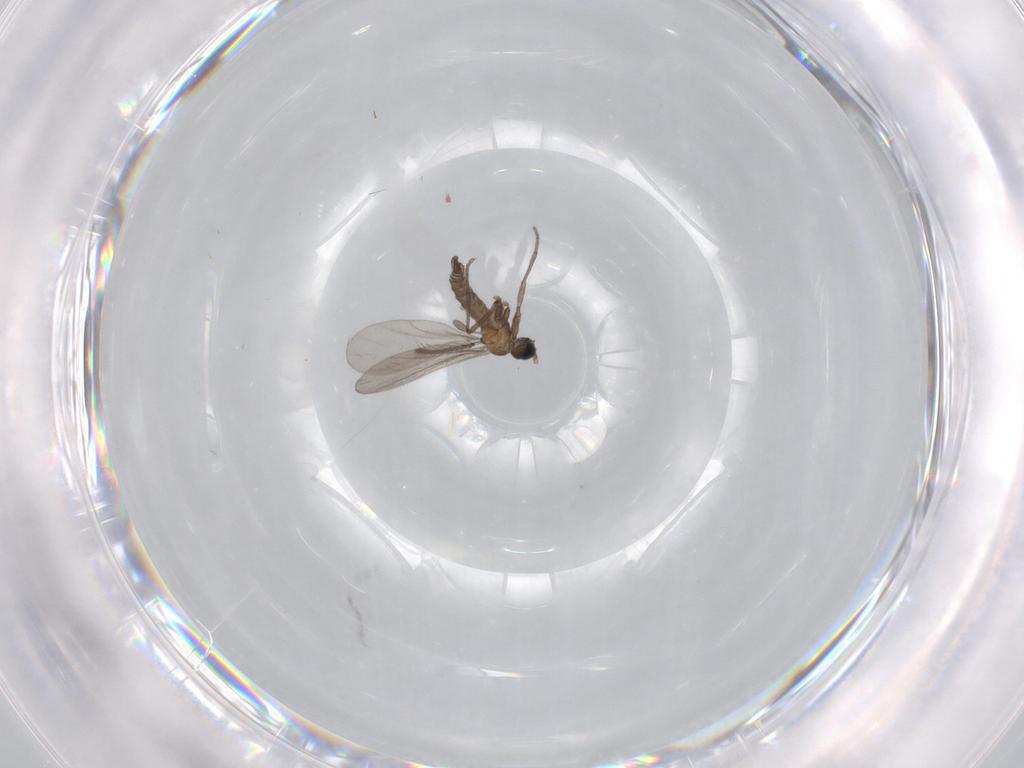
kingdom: Animalia
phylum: Arthropoda
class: Insecta
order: Diptera
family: Sciaridae
